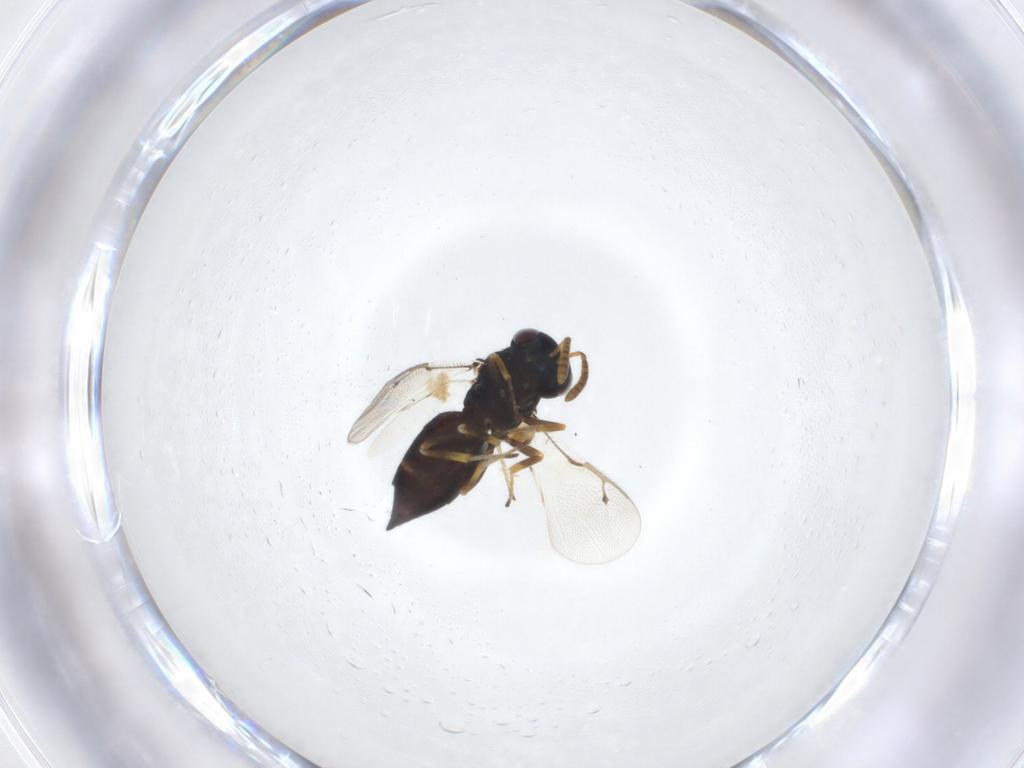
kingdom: Animalia
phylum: Arthropoda
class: Insecta
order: Hymenoptera
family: Braconidae
